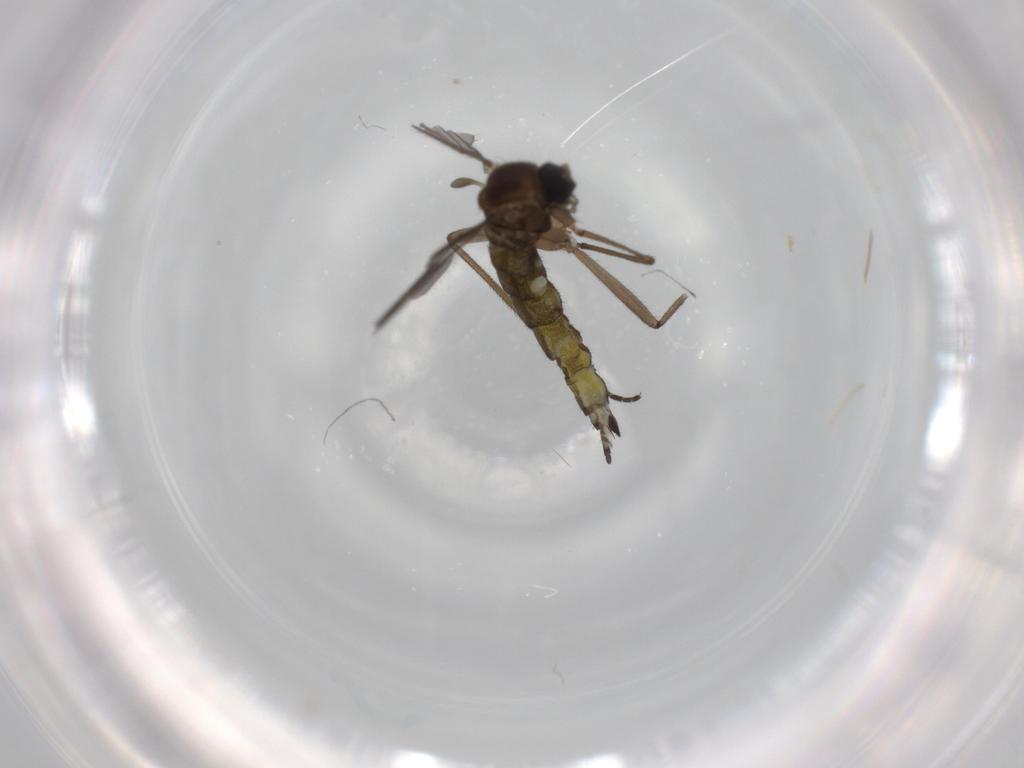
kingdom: Animalia
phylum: Arthropoda
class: Insecta
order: Diptera
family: Sciaridae
